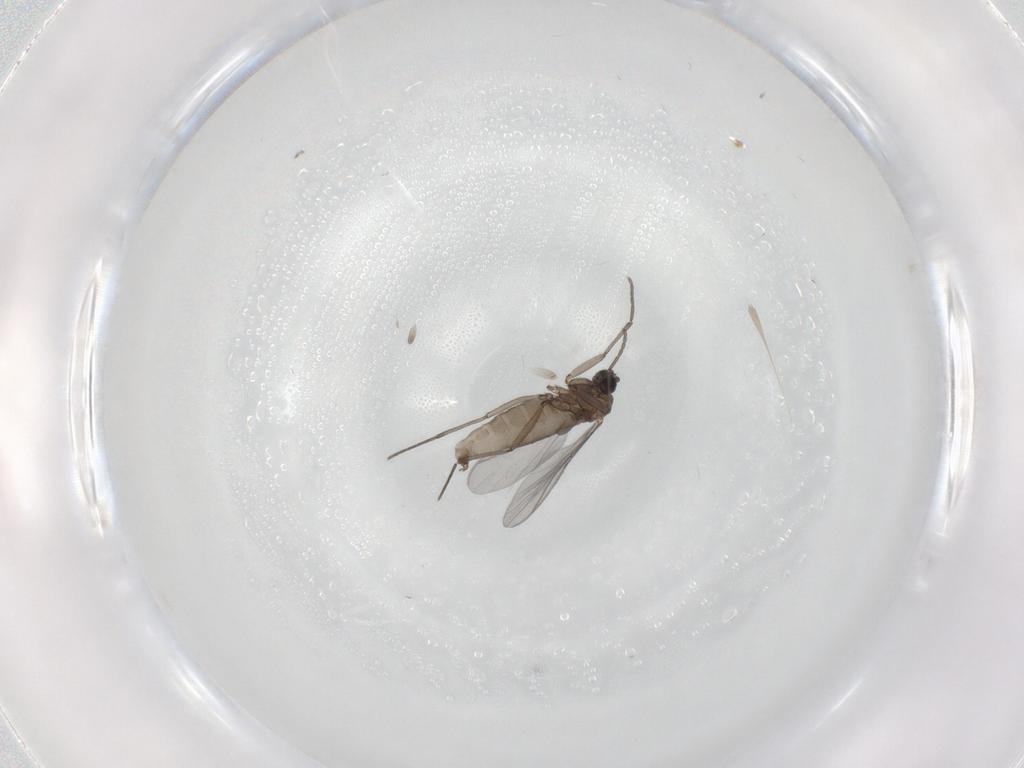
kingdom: Animalia
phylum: Arthropoda
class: Insecta
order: Diptera
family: Sciaridae
